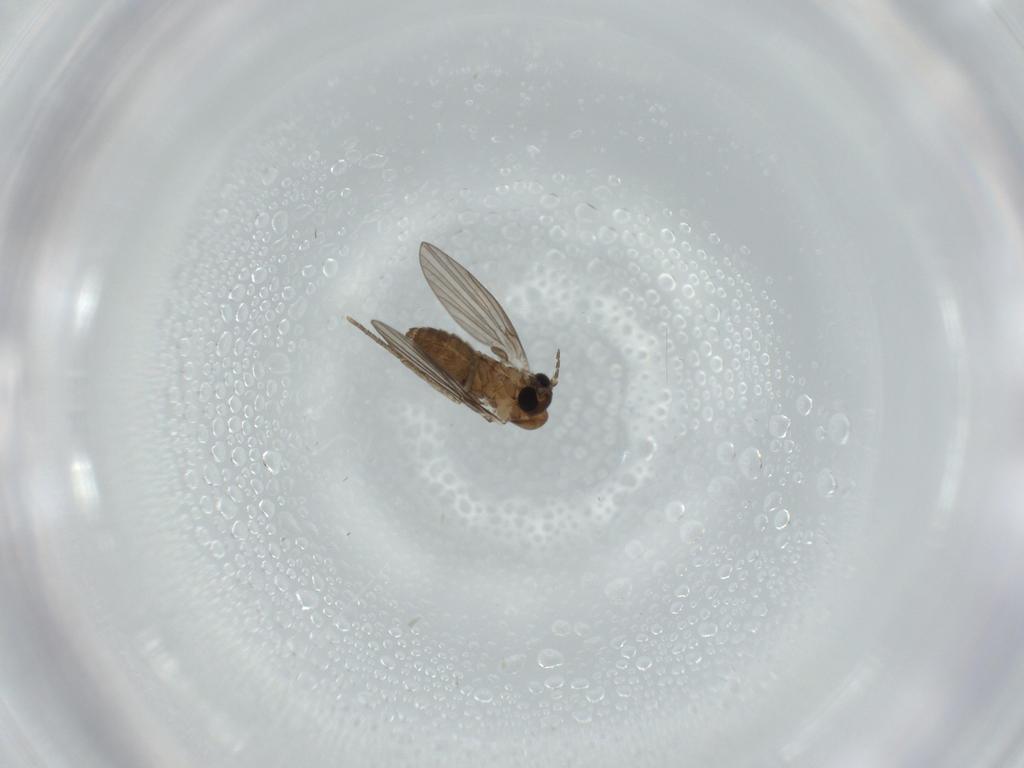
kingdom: Animalia
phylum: Arthropoda
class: Insecta
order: Diptera
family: Psychodidae
